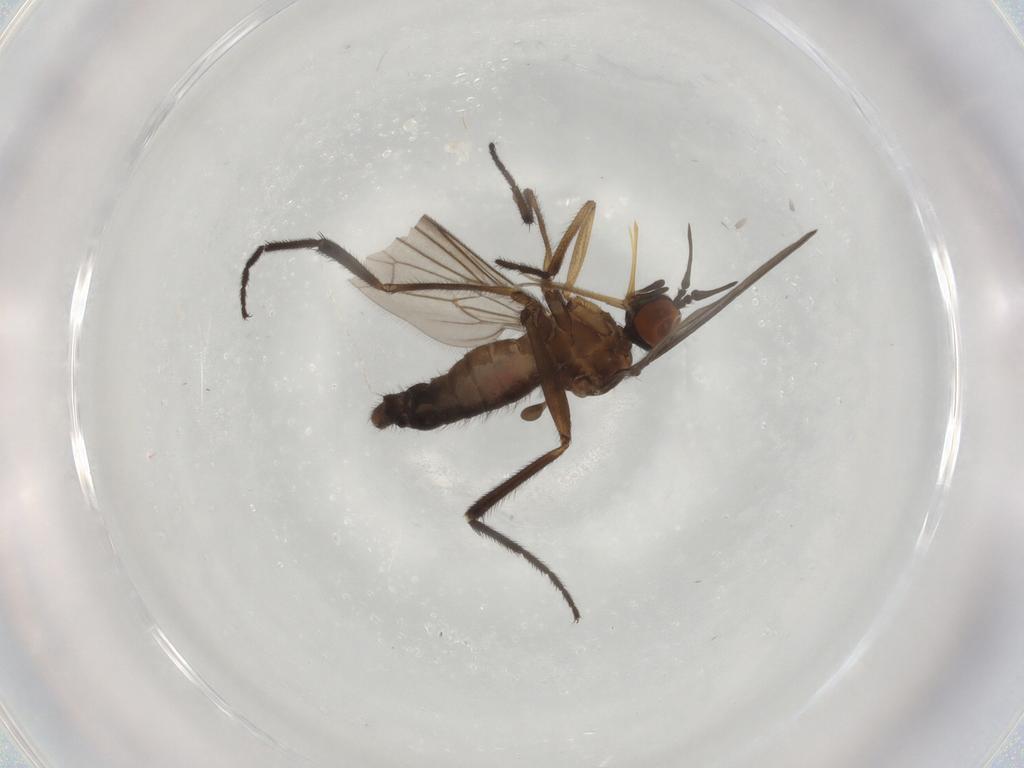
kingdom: Animalia
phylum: Arthropoda
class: Insecta
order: Diptera
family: Empididae
